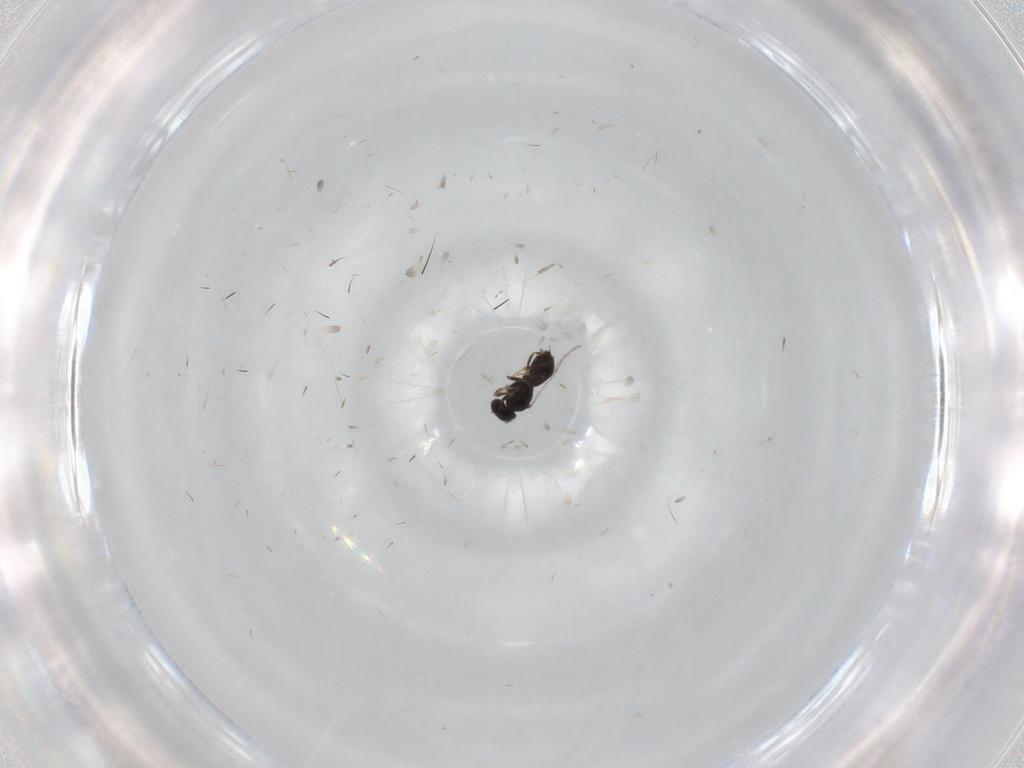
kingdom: Animalia
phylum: Arthropoda
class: Insecta
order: Hymenoptera
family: Scelionidae
